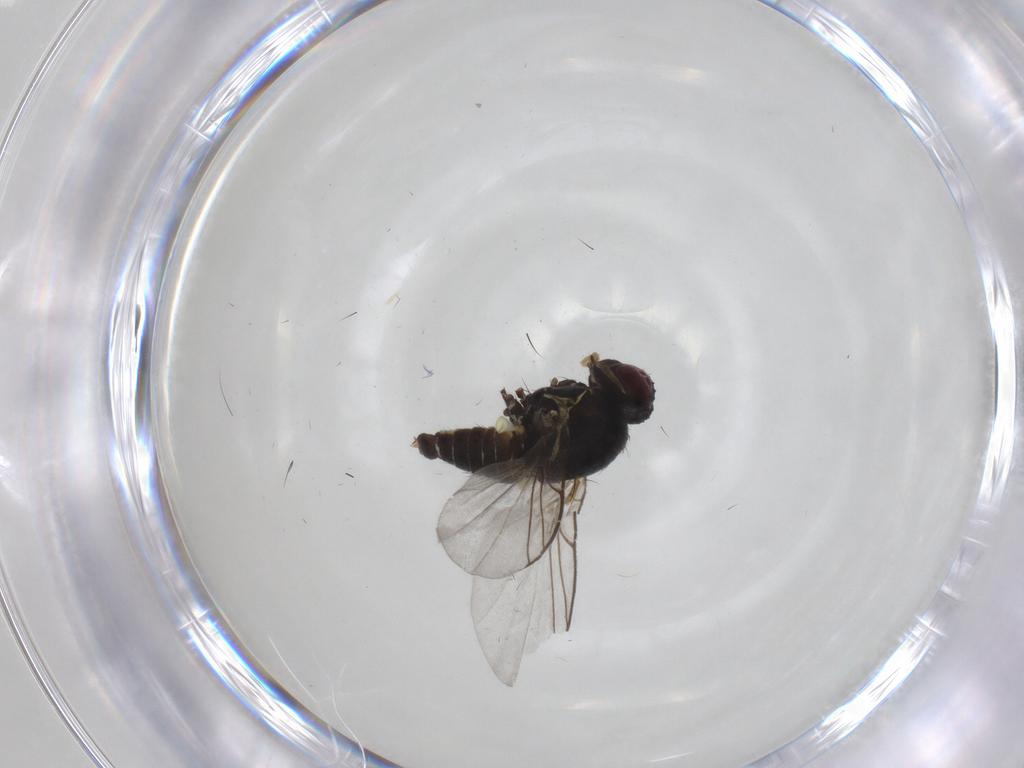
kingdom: Animalia
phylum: Arthropoda
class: Insecta
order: Diptera
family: Agromyzidae
